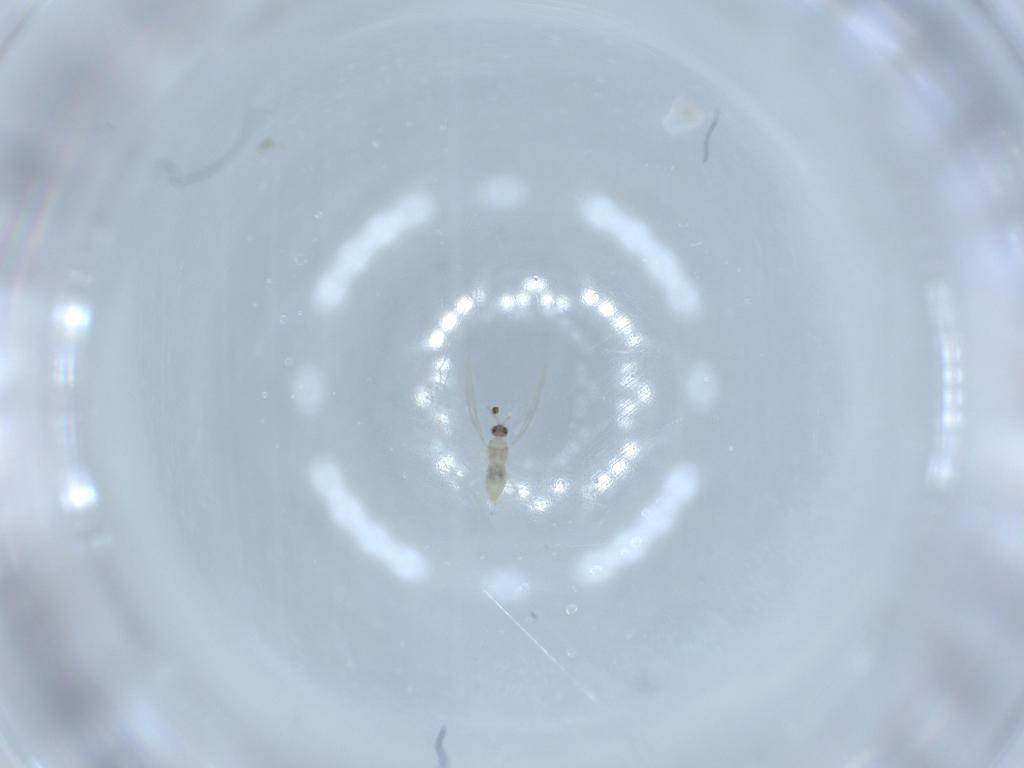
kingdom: Animalia
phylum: Arthropoda
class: Insecta
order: Diptera
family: Cecidomyiidae
